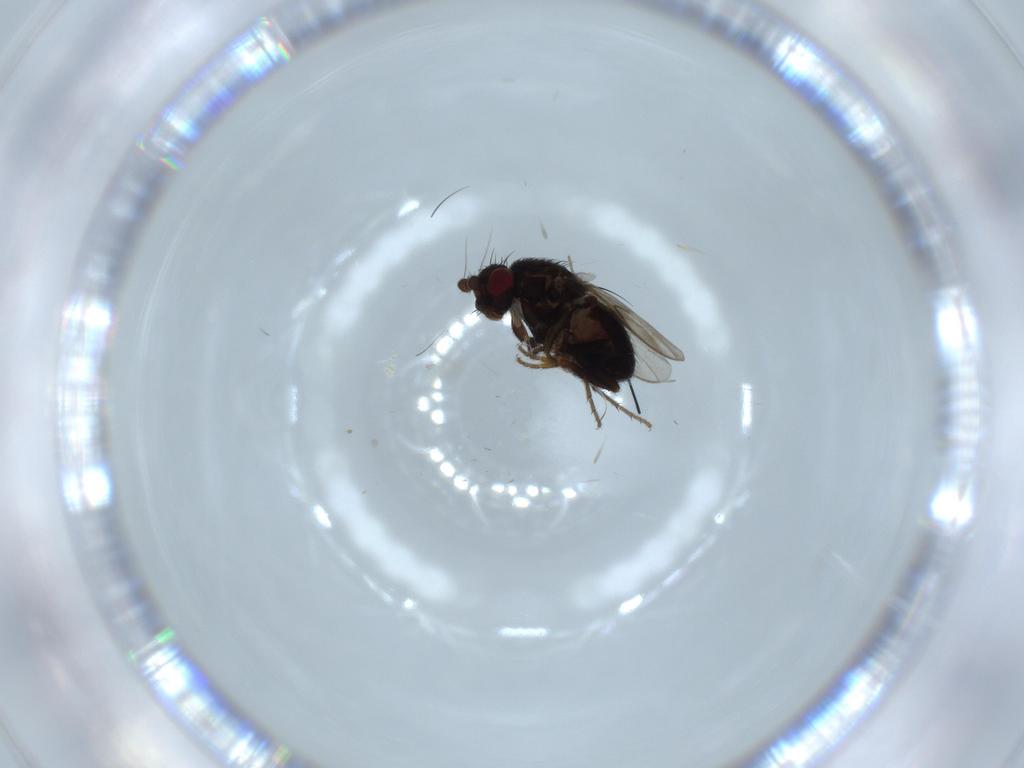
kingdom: Animalia
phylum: Arthropoda
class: Insecta
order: Diptera
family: Sphaeroceridae
